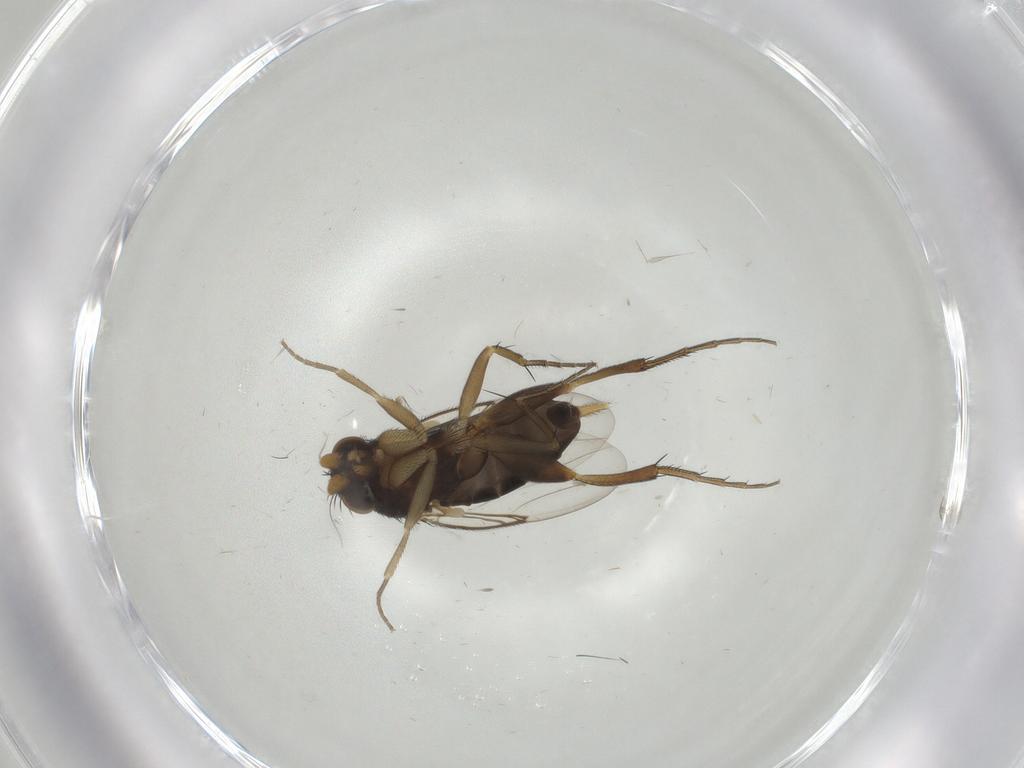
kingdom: Animalia
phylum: Arthropoda
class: Insecta
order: Diptera
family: Phoridae
